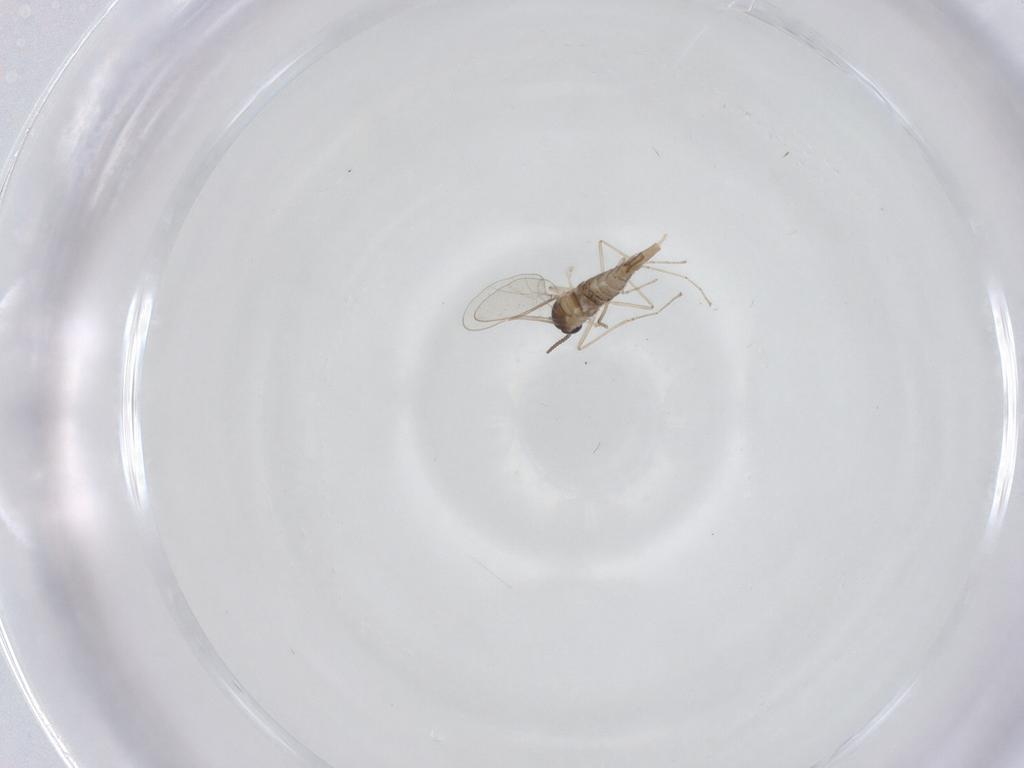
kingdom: Animalia
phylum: Arthropoda
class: Insecta
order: Diptera
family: Cecidomyiidae
